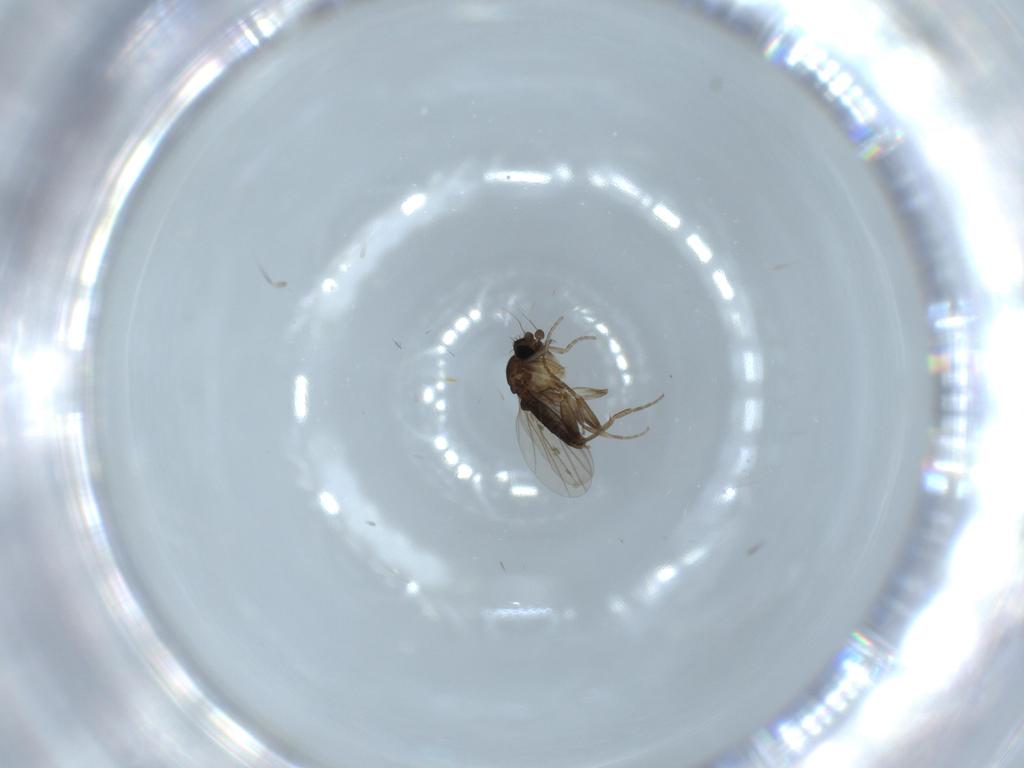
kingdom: Animalia
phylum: Arthropoda
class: Insecta
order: Diptera
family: Phoridae
